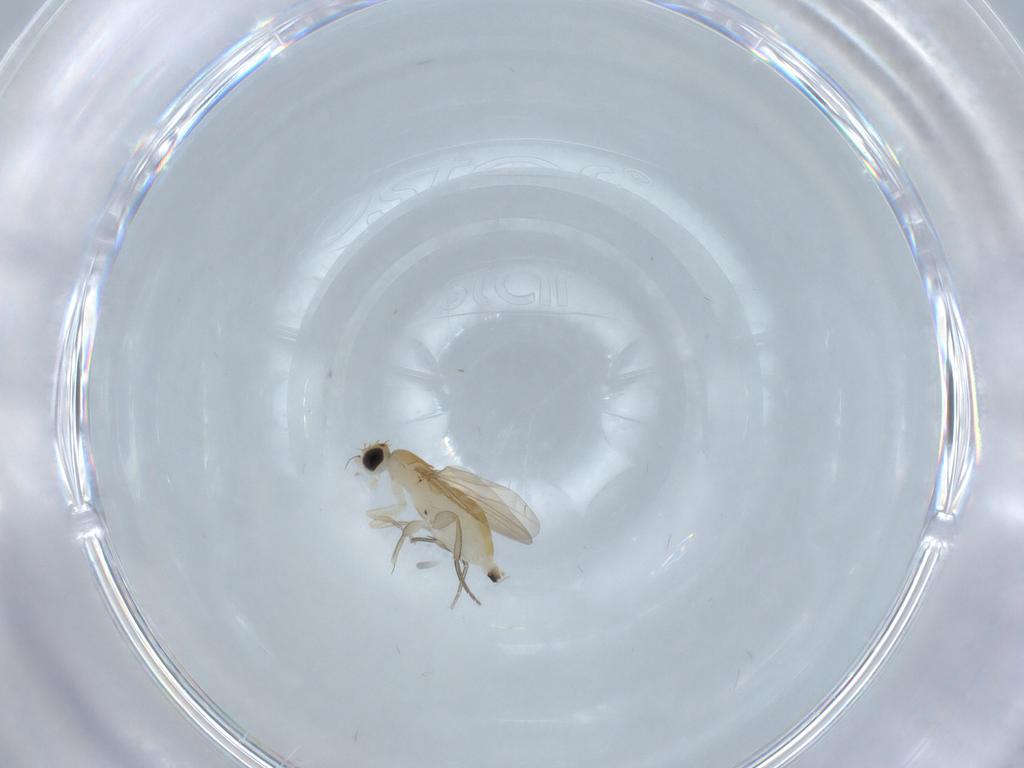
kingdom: Animalia
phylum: Arthropoda
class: Insecta
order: Diptera
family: Phoridae
